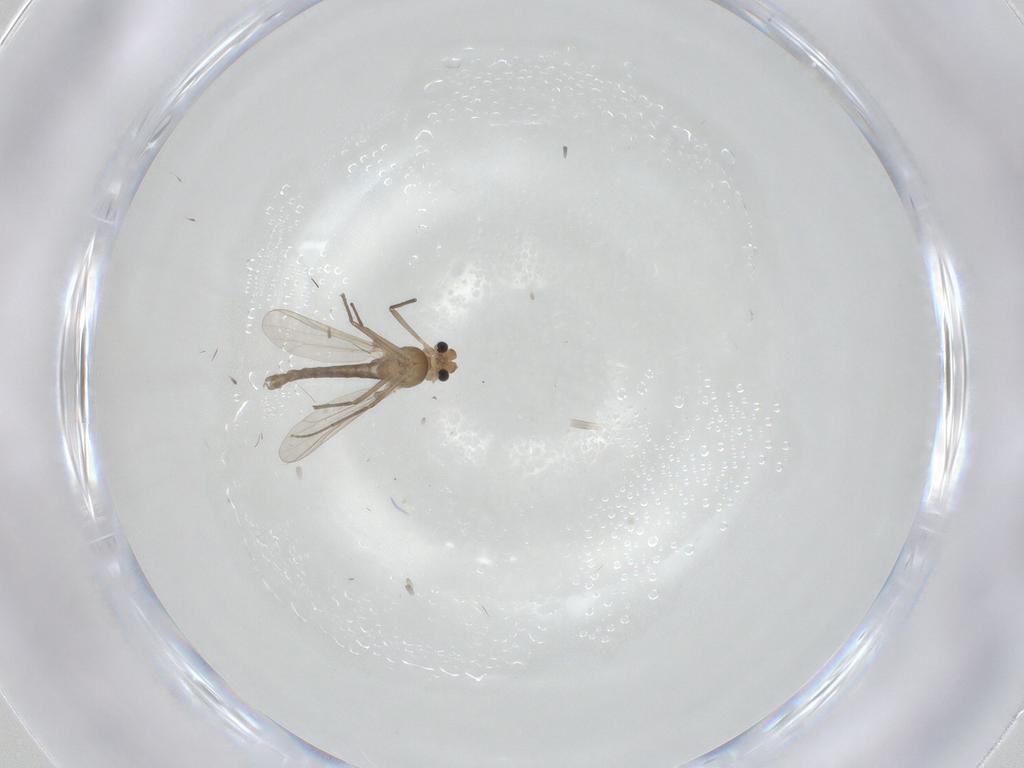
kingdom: Animalia
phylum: Arthropoda
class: Insecta
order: Diptera
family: Chironomidae
